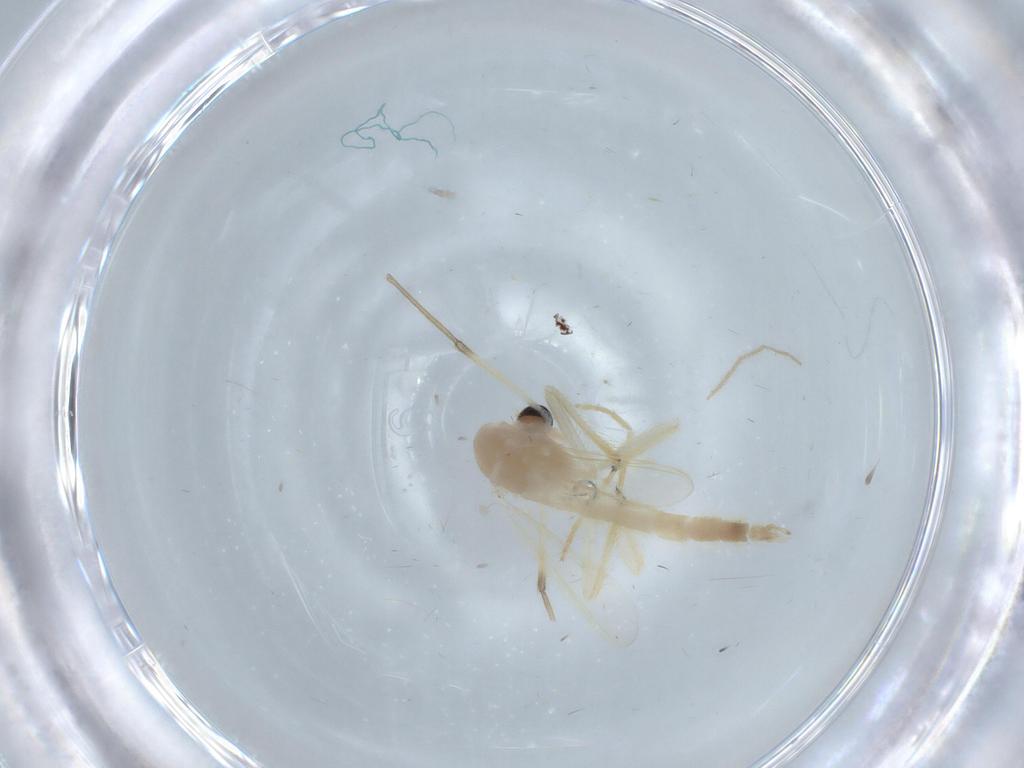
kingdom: Animalia
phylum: Arthropoda
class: Insecta
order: Diptera
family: Chironomidae
